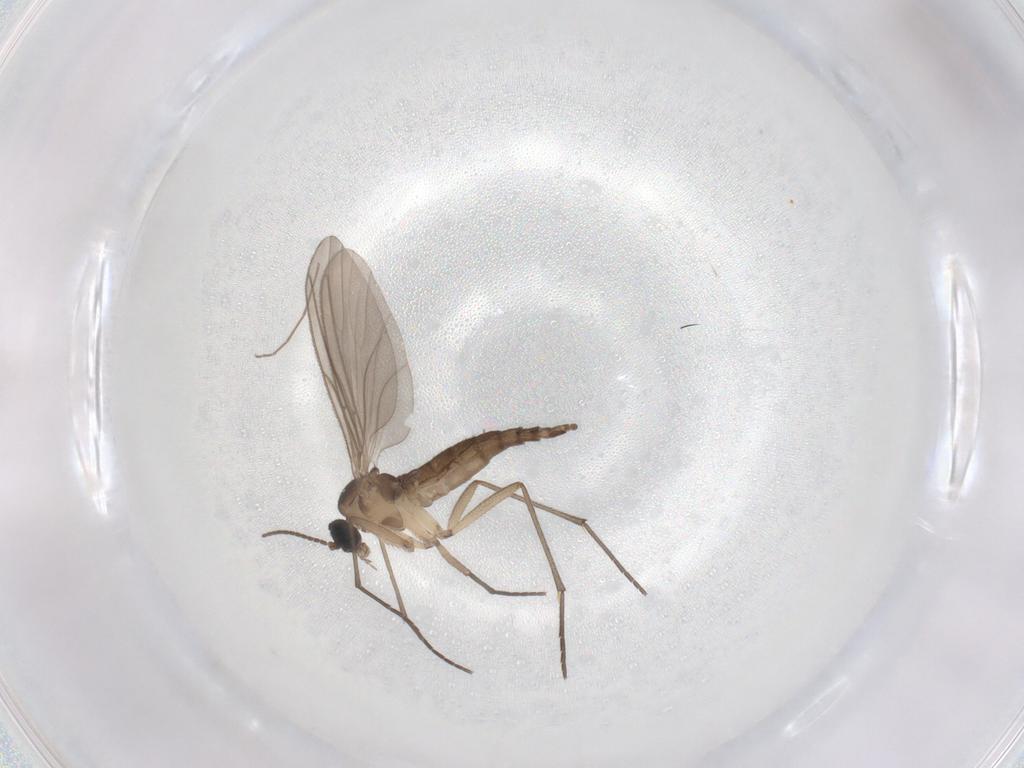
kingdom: Animalia
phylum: Arthropoda
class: Insecta
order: Diptera
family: Sciaridae
